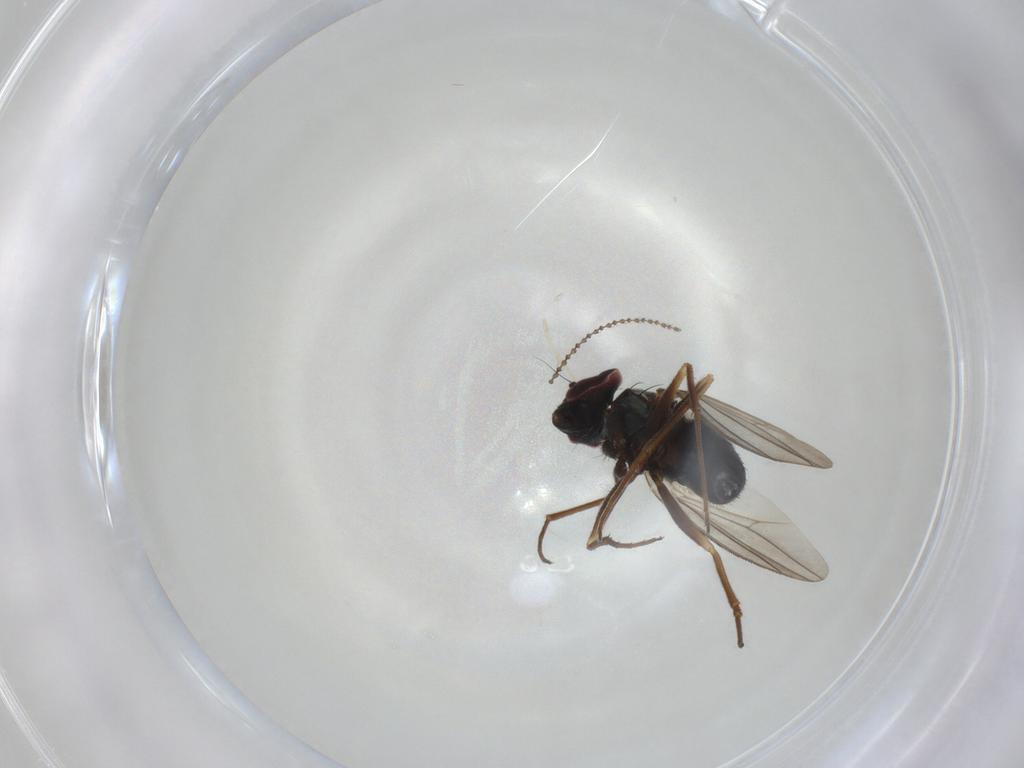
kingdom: Animalia
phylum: Arthropoda
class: Insecta
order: Diptera
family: Dolichopodidae
